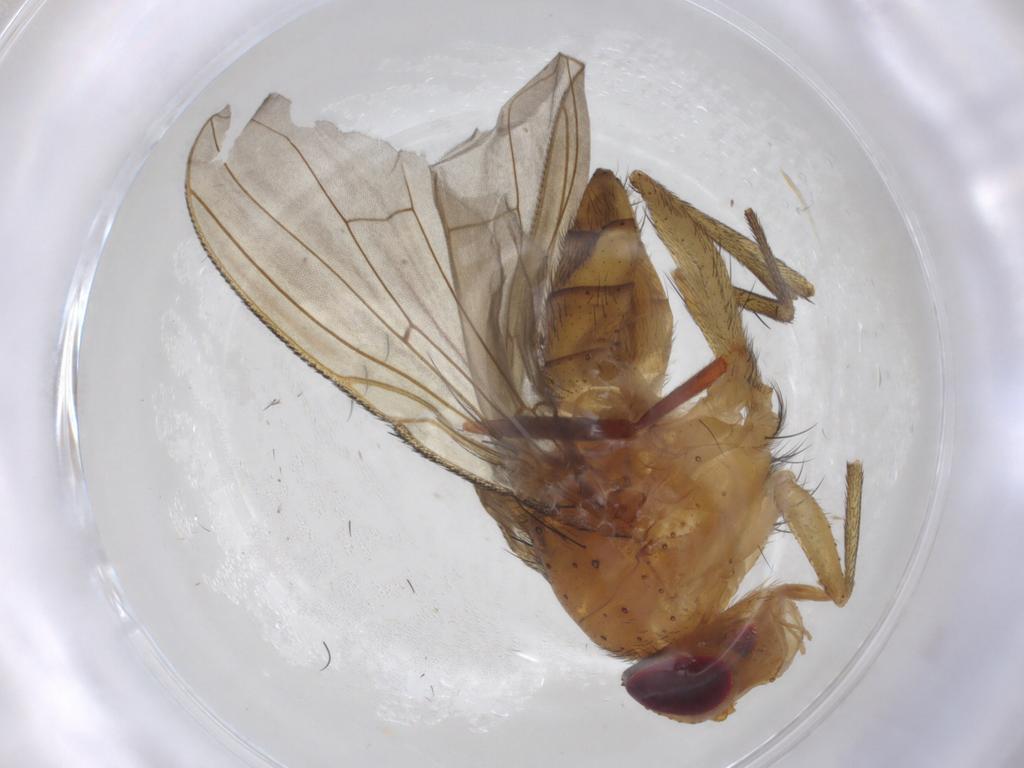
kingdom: Animalia
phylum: Arthropoda
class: Insecta
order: Diptera
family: Calliphoridae
